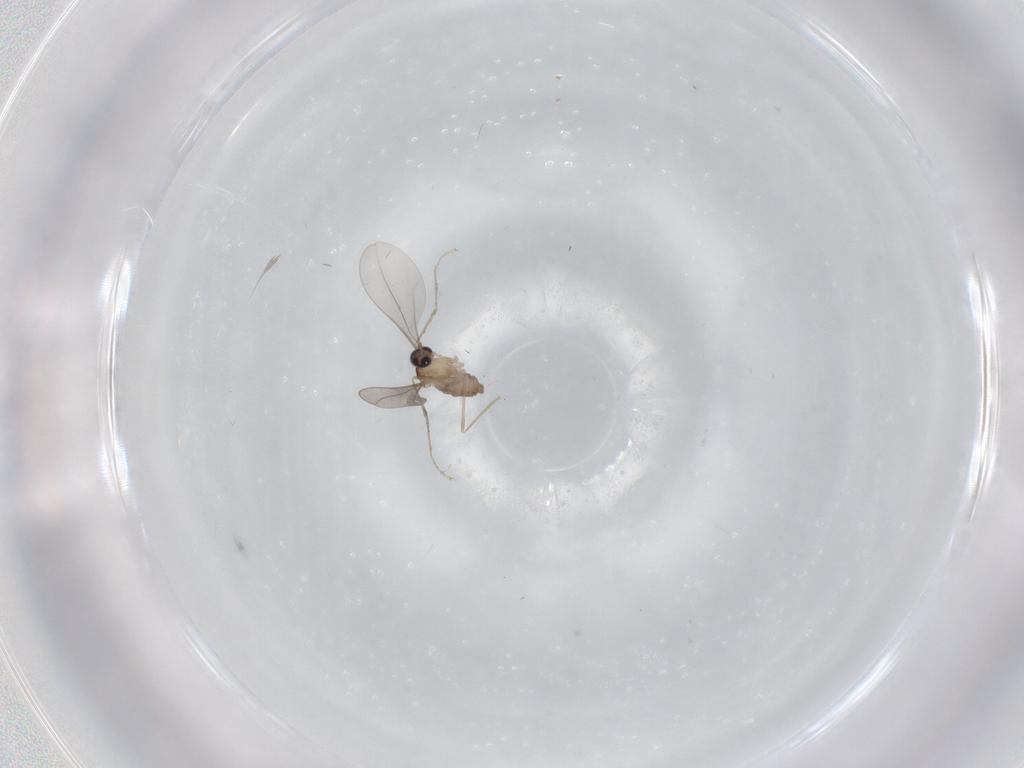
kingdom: Animalia
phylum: Arthropoda
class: Insecta
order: Diptera
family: Cecidomyiidae
